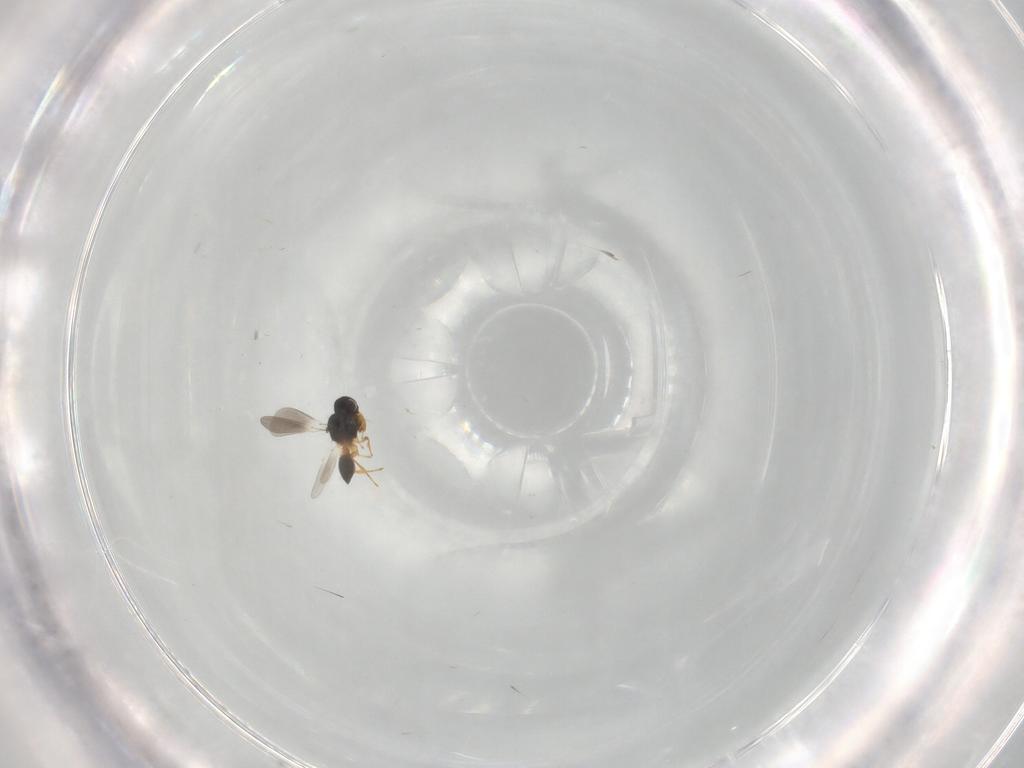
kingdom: Animalia
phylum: Arthropoda
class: Insecta
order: Hymenoptera
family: Platygastridae
